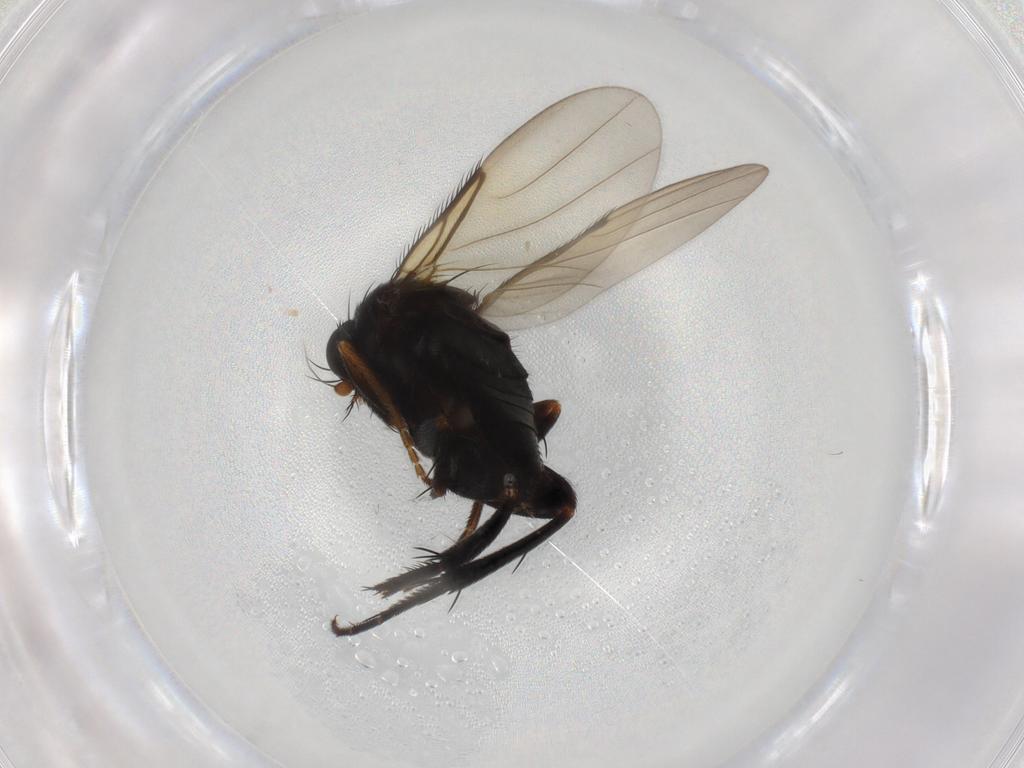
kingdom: Animalia
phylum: Arthropoda
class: Insecta
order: Diptera
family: Phoridae
